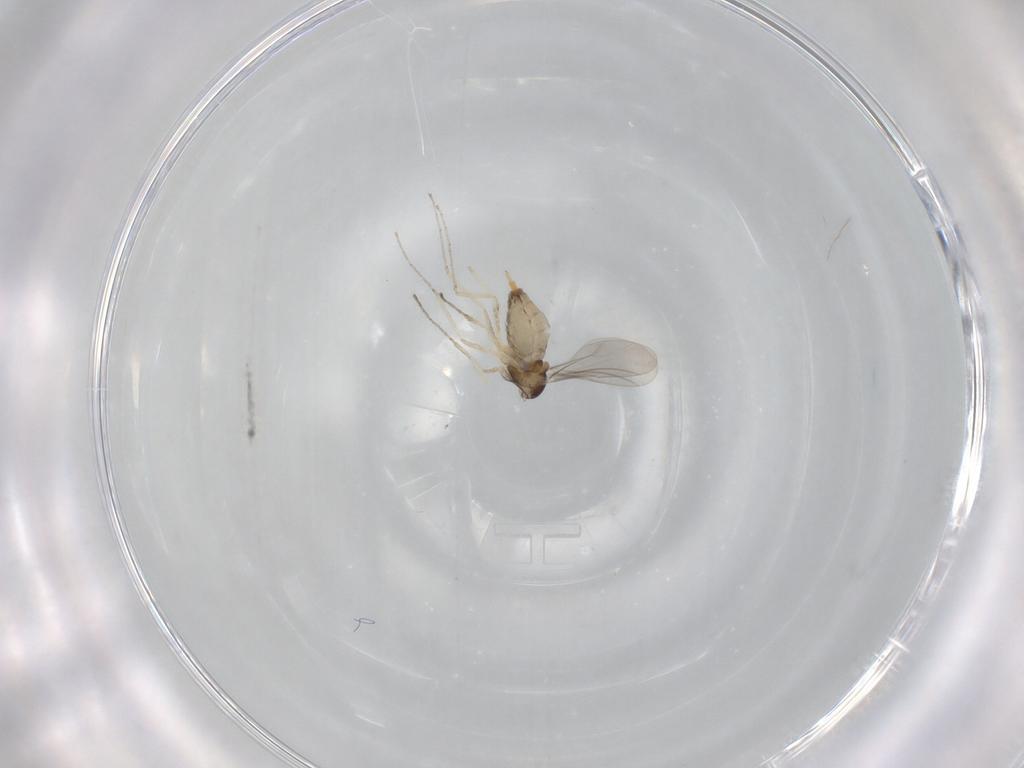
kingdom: Animalia
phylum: Arthropoda
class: Insecta
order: Diptera
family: Cecidomyiidae
